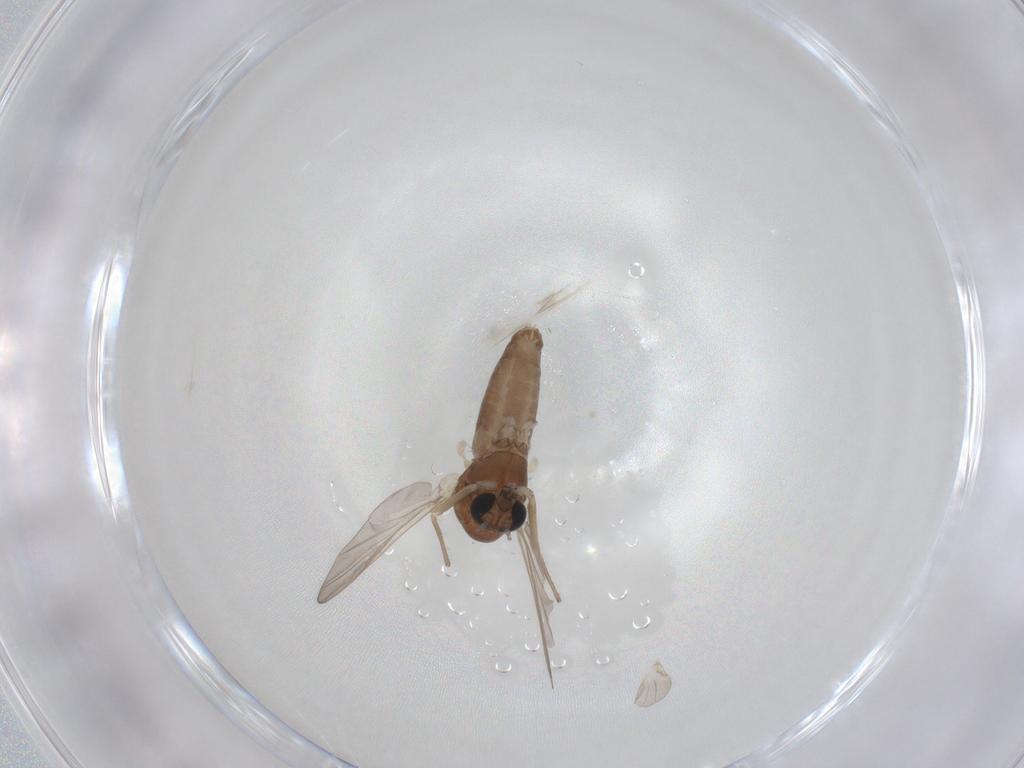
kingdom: Animalia
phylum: Arthropoda
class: Insecta
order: Diptera
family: Chironomidae
